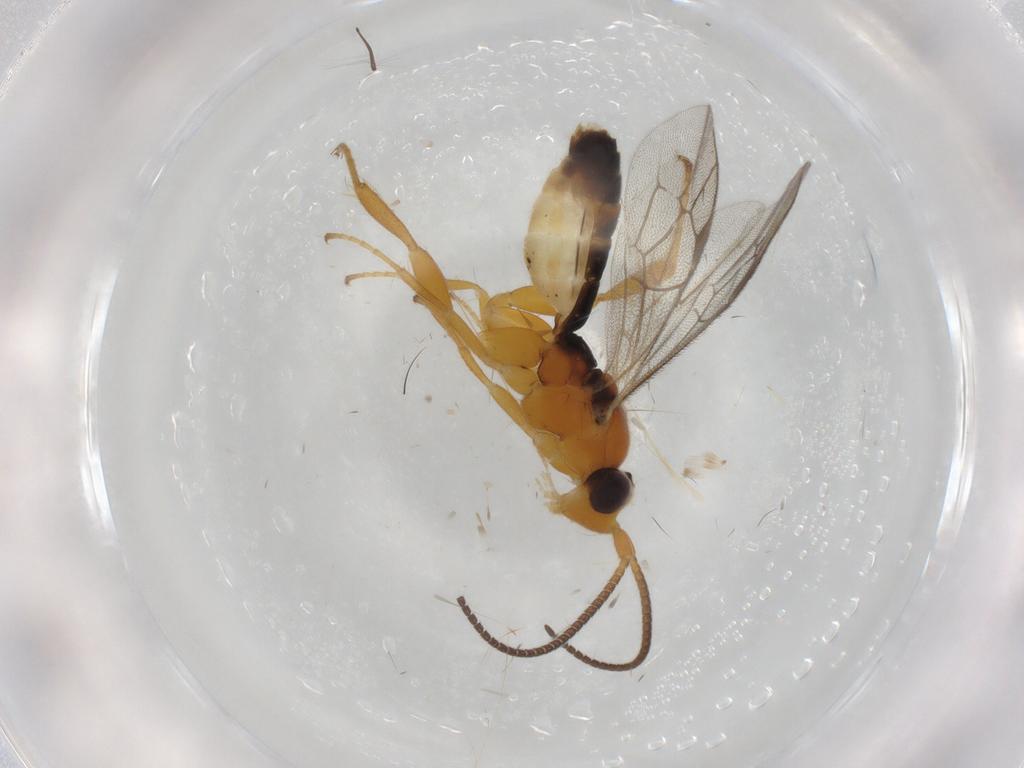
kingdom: Animalia
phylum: Arthropoda
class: Insecta
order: Hymenoptera
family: Ichneumonidae
